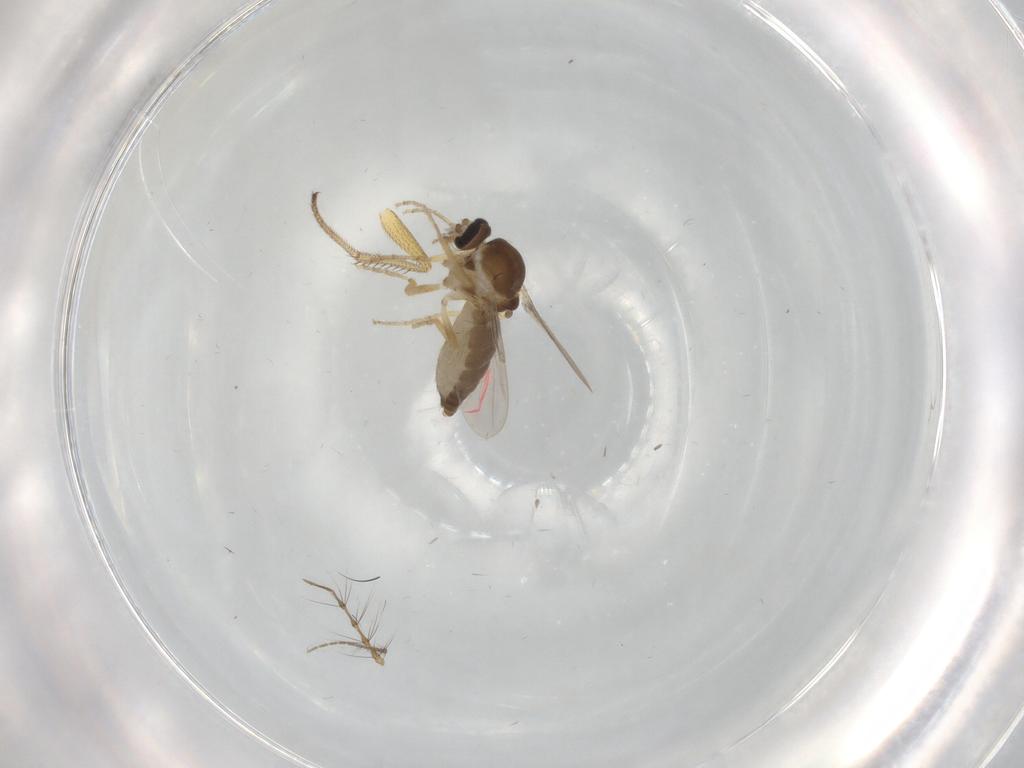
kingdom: Animalia
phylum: Arthropoda
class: Insecta
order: Diptera
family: Ceratopogonidae
